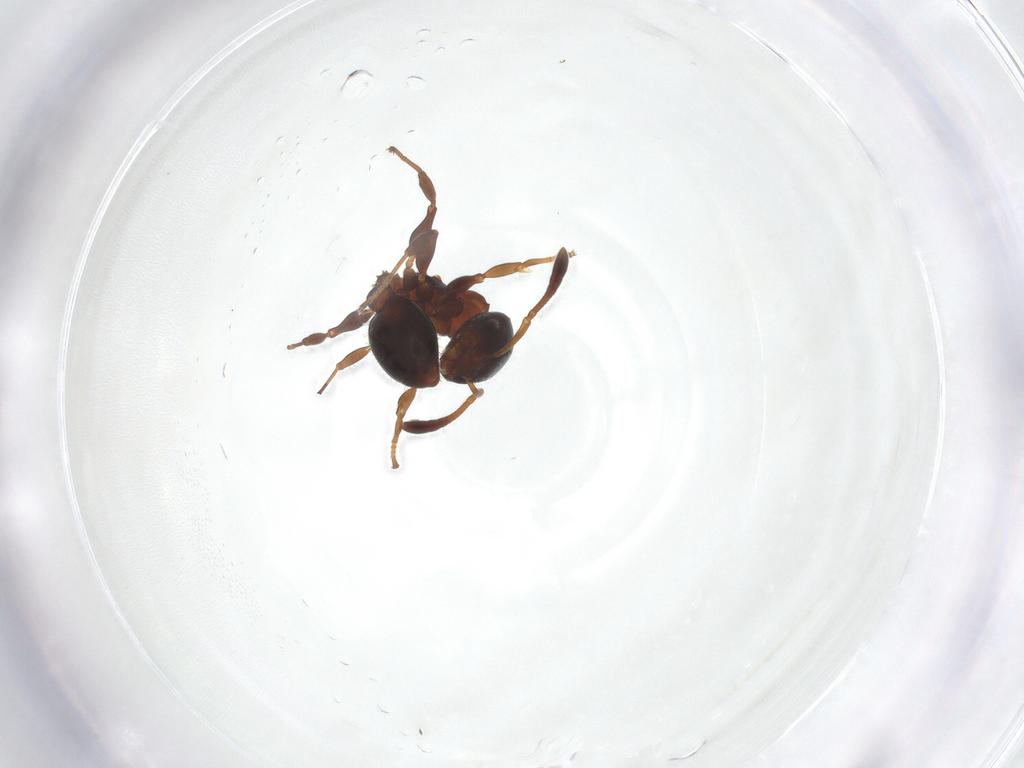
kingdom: Animalia
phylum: Arthropoda
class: Insecta
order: Hymenoptera
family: Formicidae
